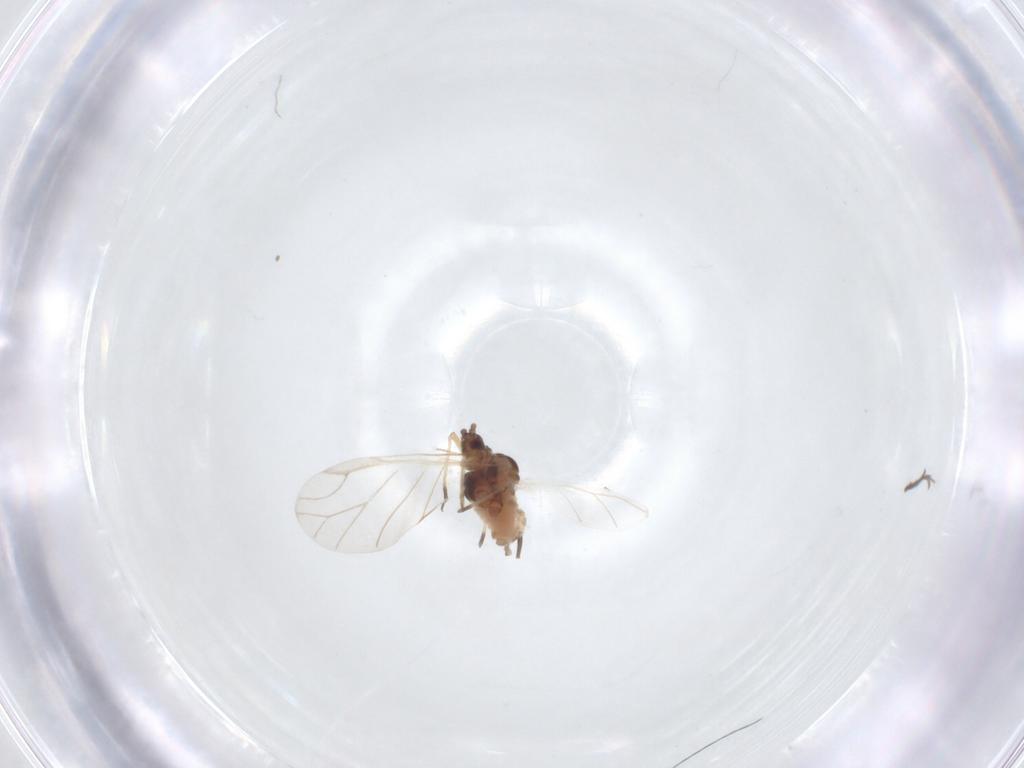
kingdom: Animalia
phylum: Arthropoda
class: Insecta
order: Hemiptera
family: Aphididae
